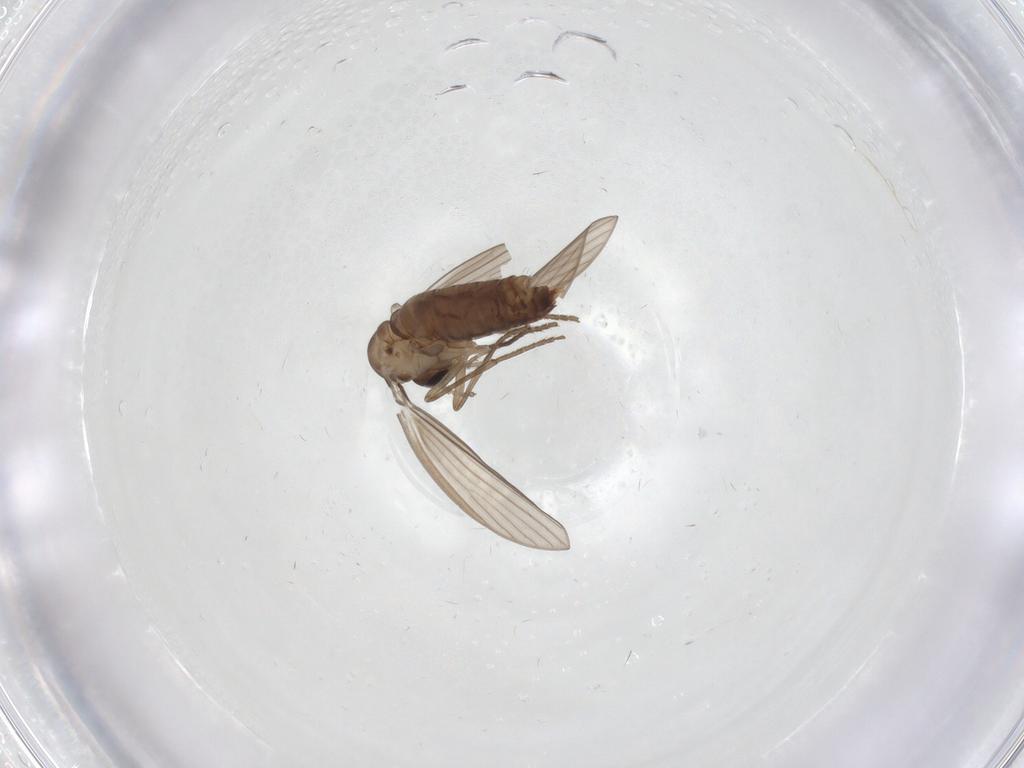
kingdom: Animalia
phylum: Arthropoda
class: Insecta
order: Diptera
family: Psychodidae
